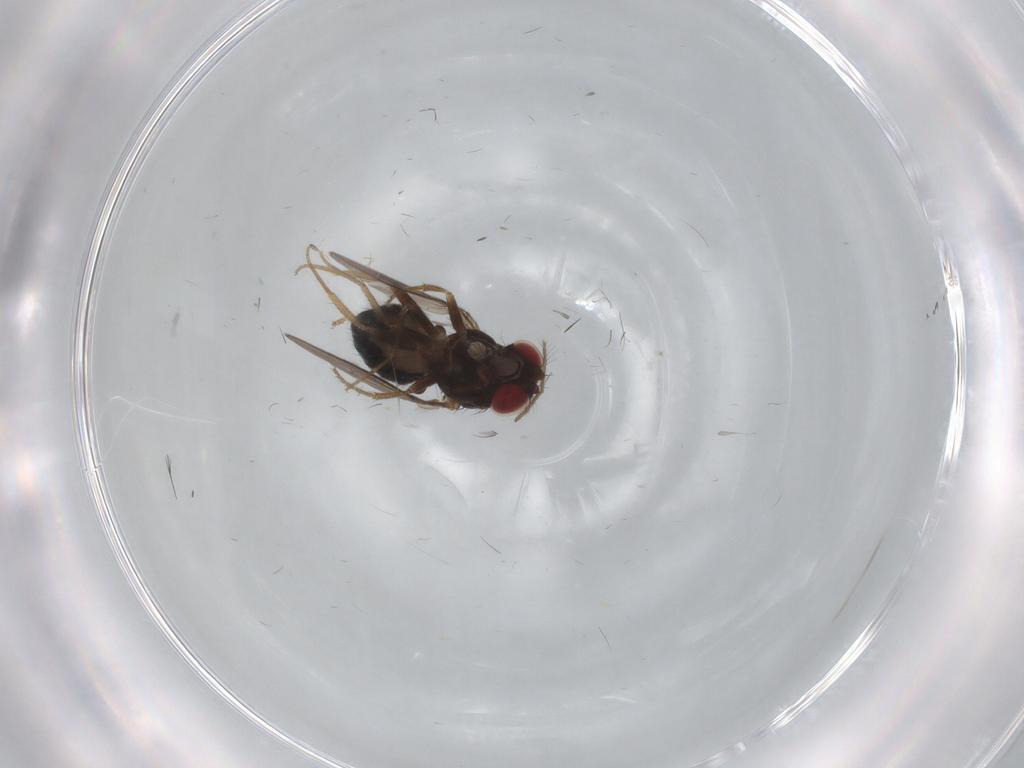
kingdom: Animalia
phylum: Arthropoda
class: Insecta
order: Diptera
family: Drosophilidae
